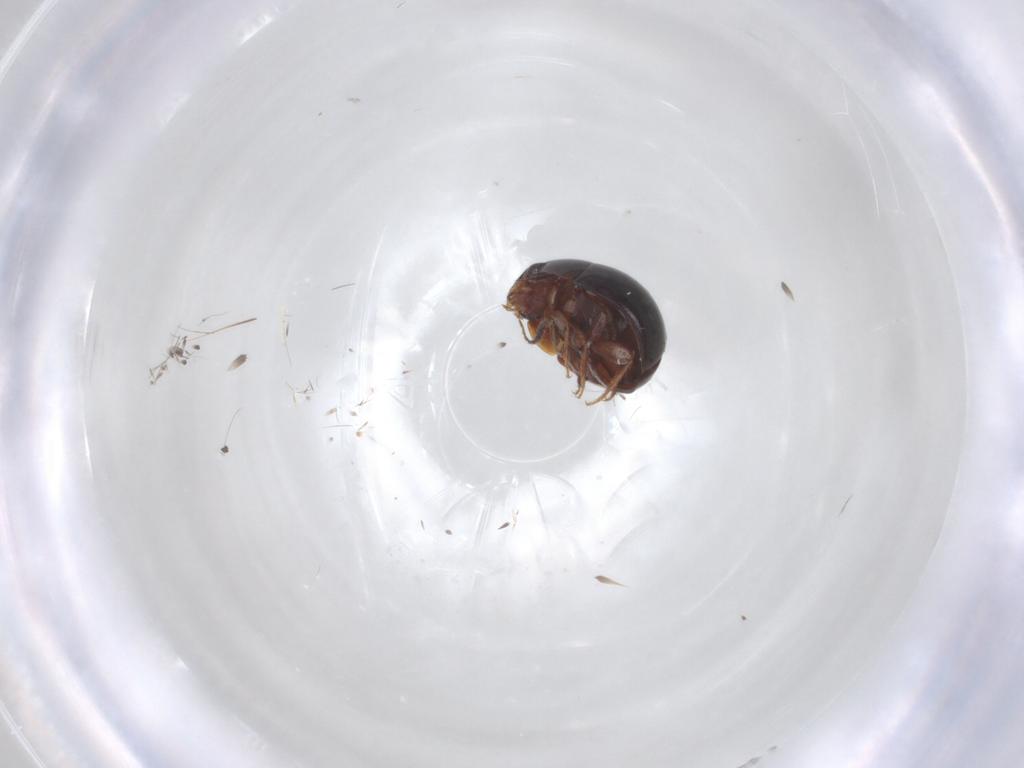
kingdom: Animalia
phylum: Arthropoda
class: Insecta
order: Coleoptera
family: Leiodidae
